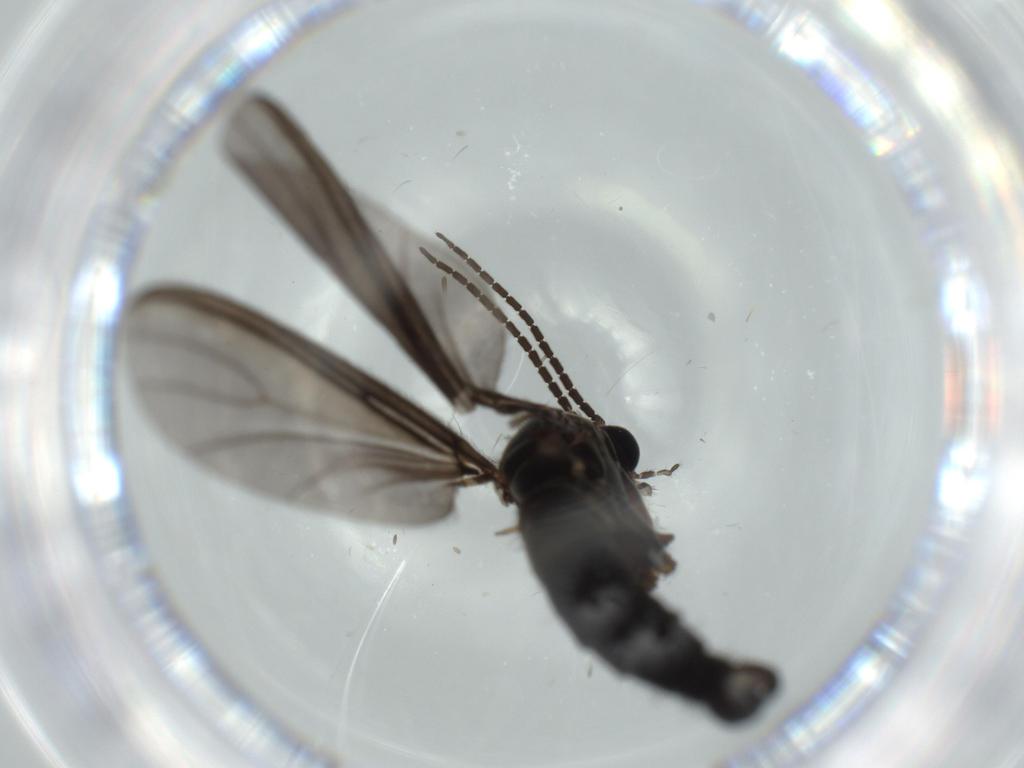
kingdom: Animalia
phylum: Arthropoda
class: Insecta
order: Diptera
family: Sciaridae
